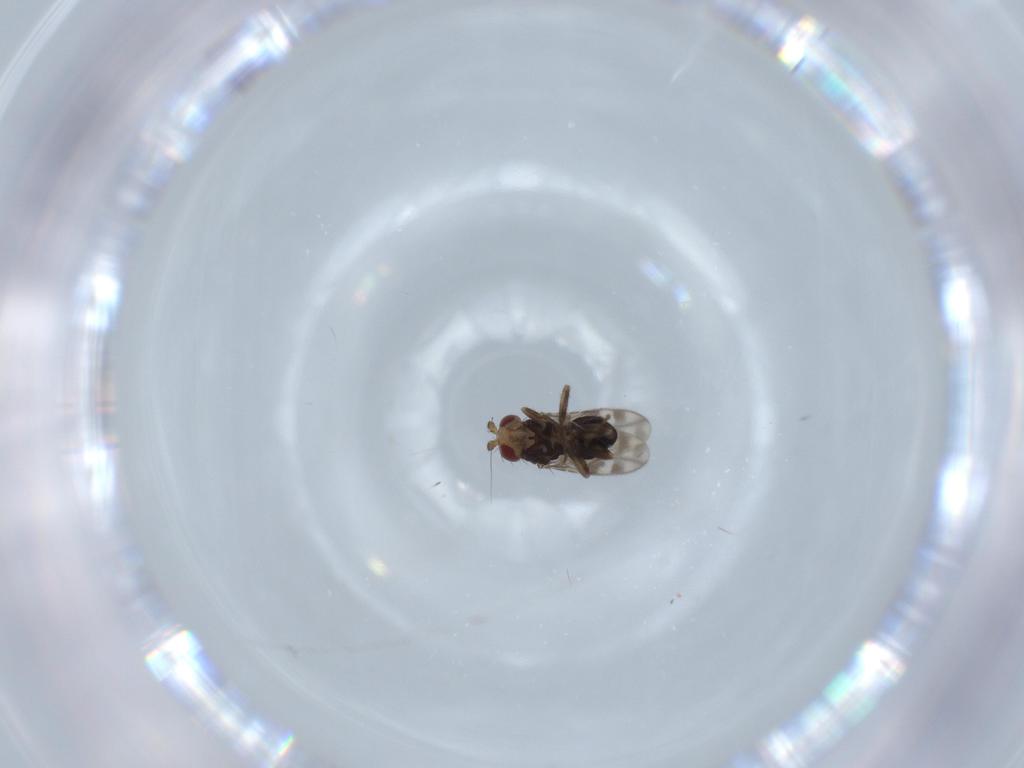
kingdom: Animalia
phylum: Arthropoda
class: Insecta
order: Diptera
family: Sphaeroceridae
